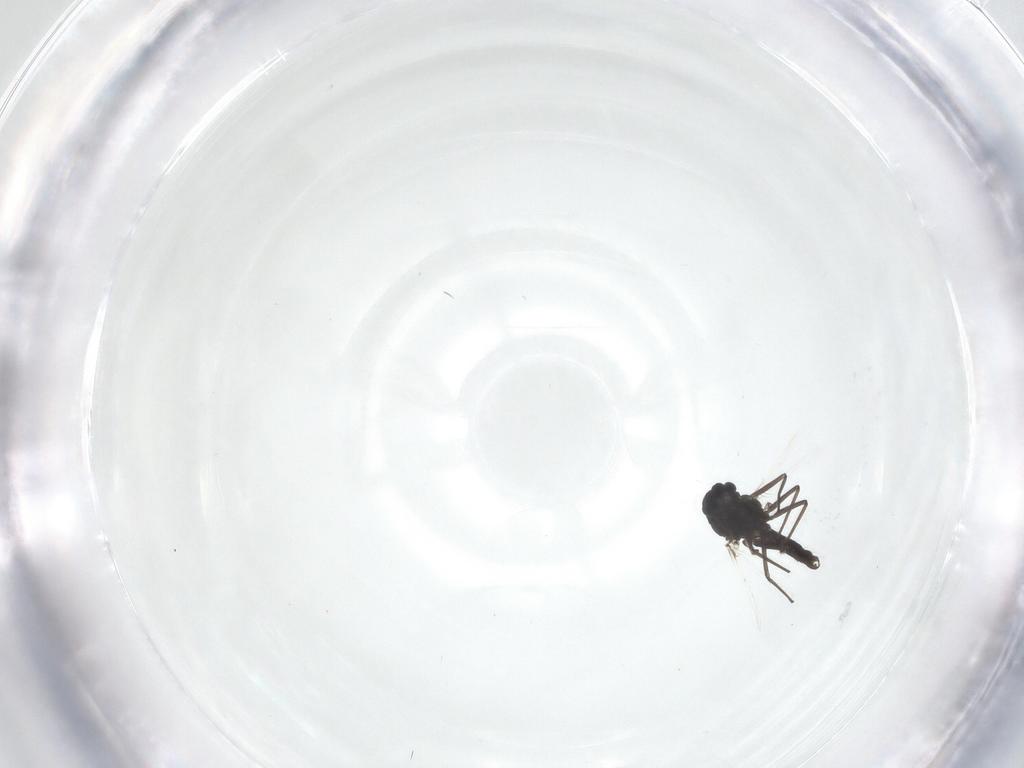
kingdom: Animalia
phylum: Arthropoda
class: Insecta
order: Diptera
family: Chironomidae
